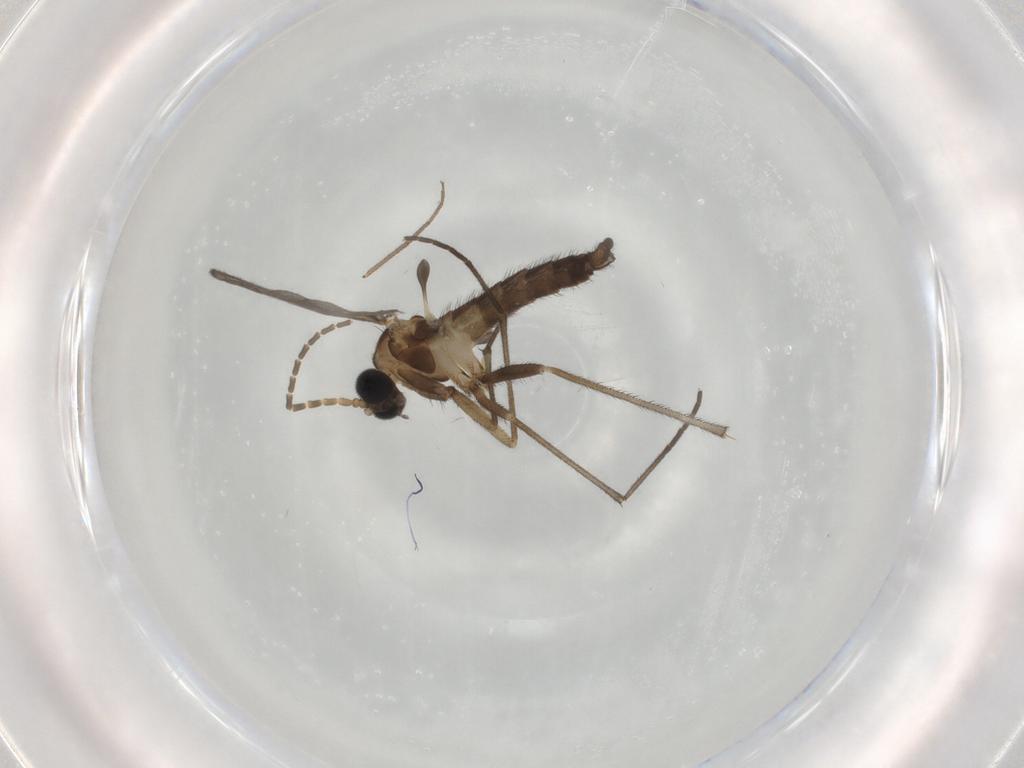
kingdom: Animalia
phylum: Arthropoda
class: Insecta
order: Diptera
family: Sciaridae
